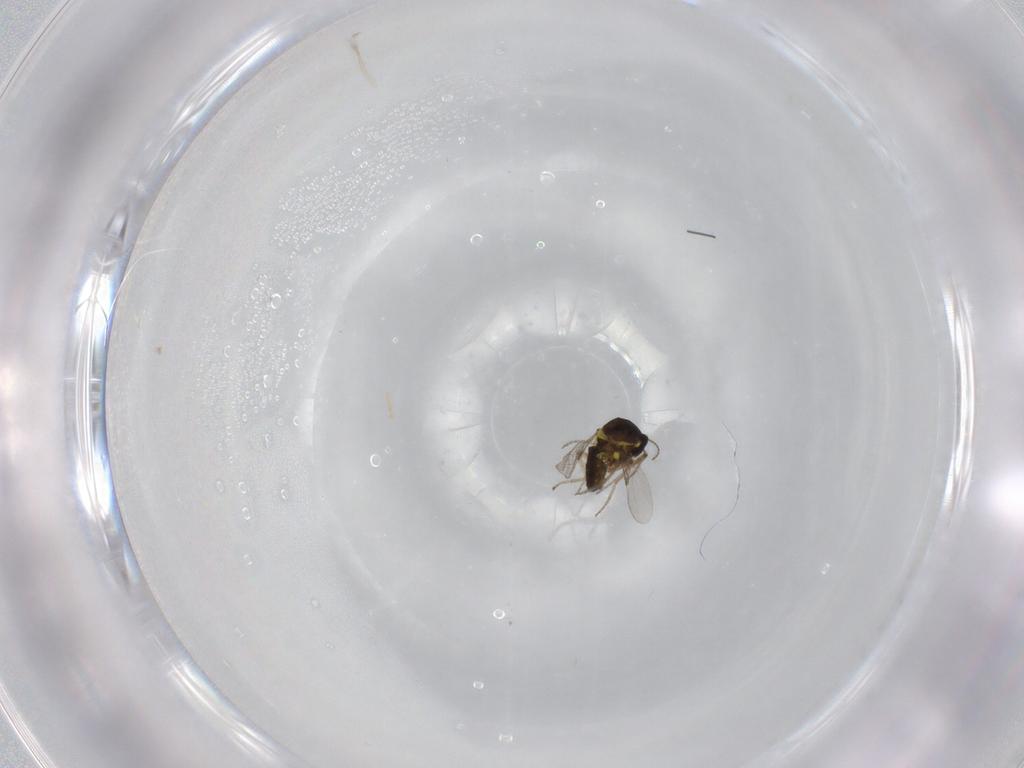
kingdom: Animalia
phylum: Arthropoda
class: Insecta
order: Diptera
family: Ceratopogonidae
